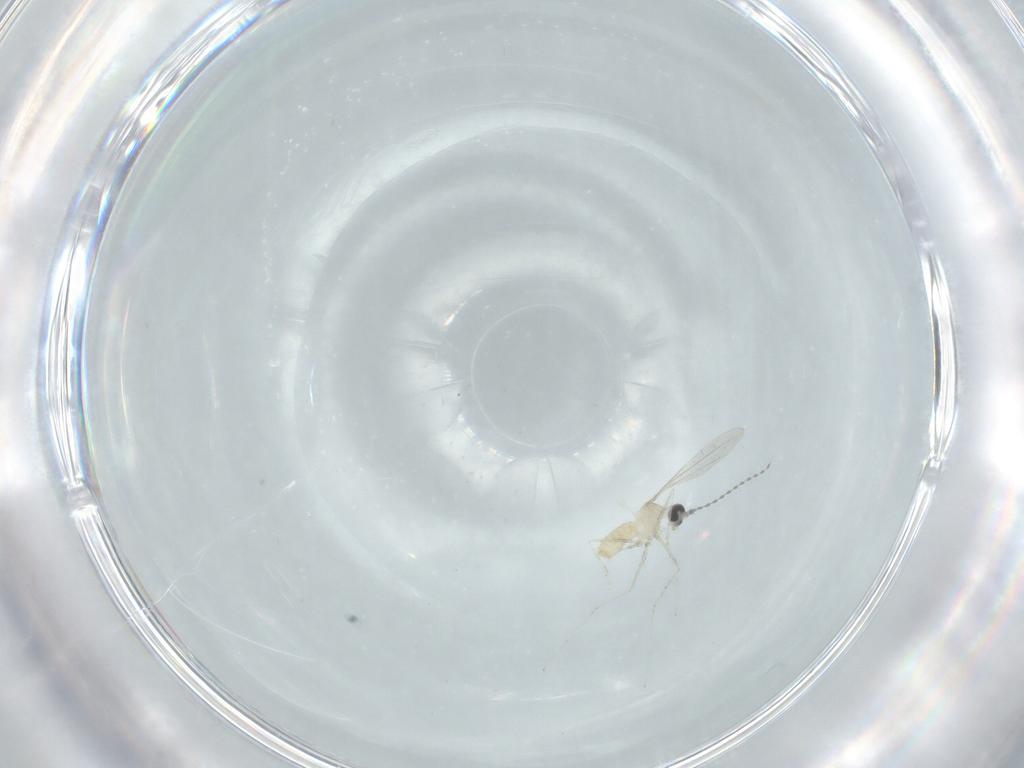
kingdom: Animalia
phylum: Arthropoda
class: Insecta
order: Diptera
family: Cecidomyiidae
